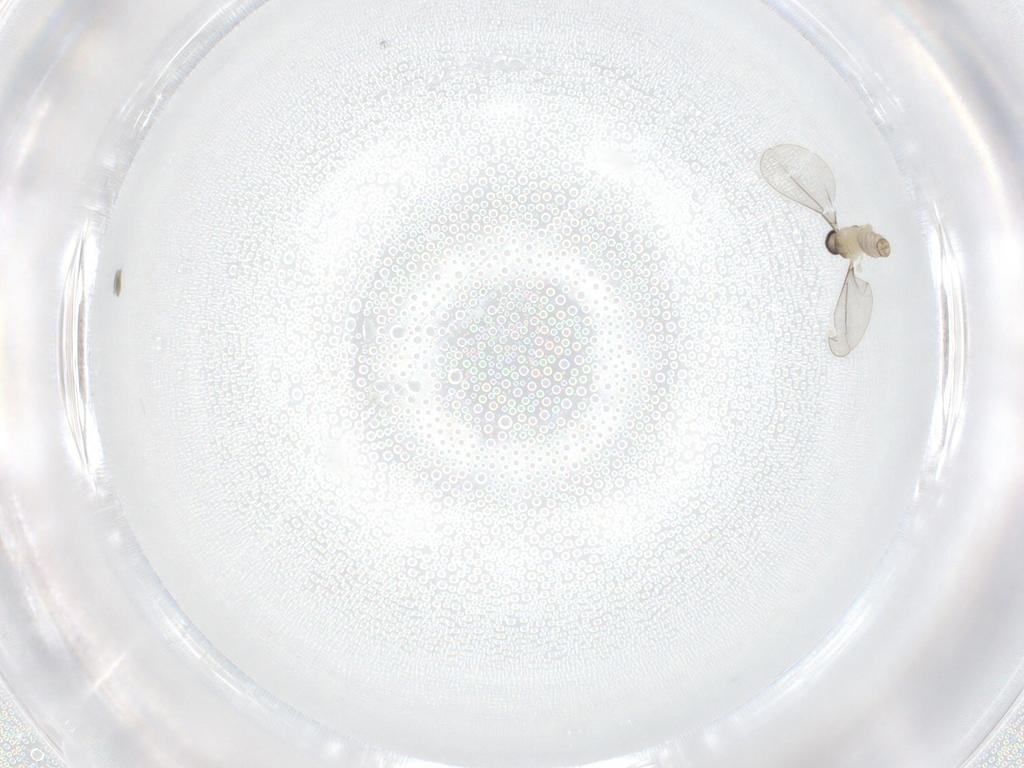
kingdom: Animalia
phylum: Arthropoda
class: Insecta
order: Diptera
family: Cecidomyiidae
